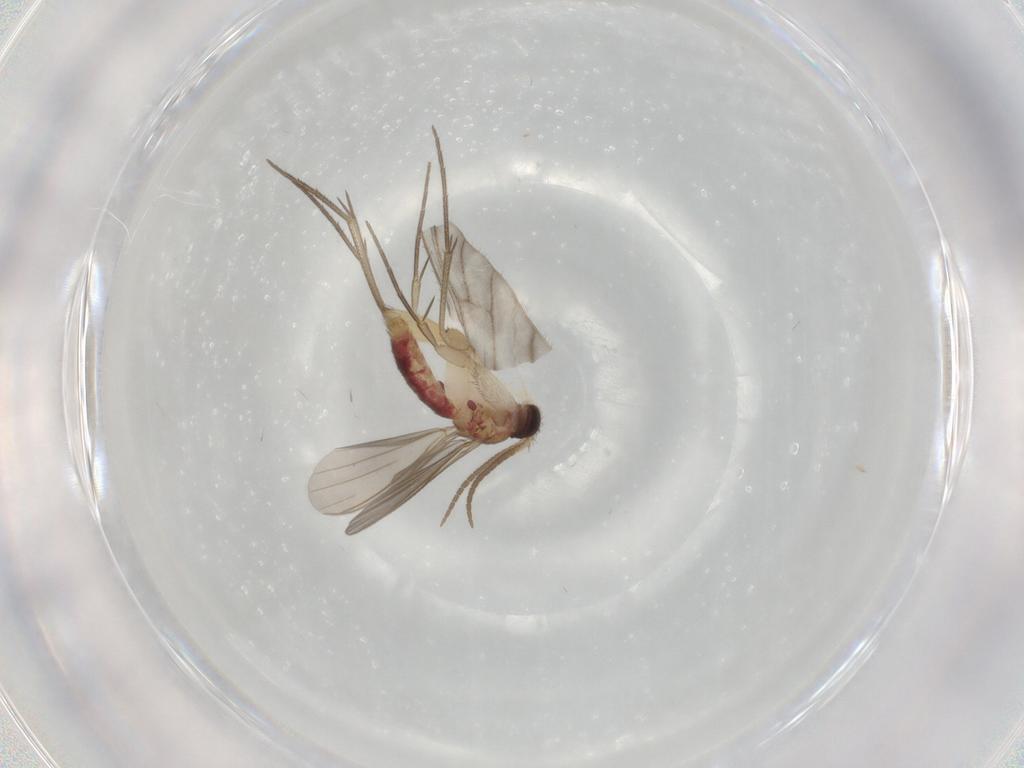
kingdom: Animalia
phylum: Arthropoda
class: Insecta
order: Diptera
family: Mycetophilidae
